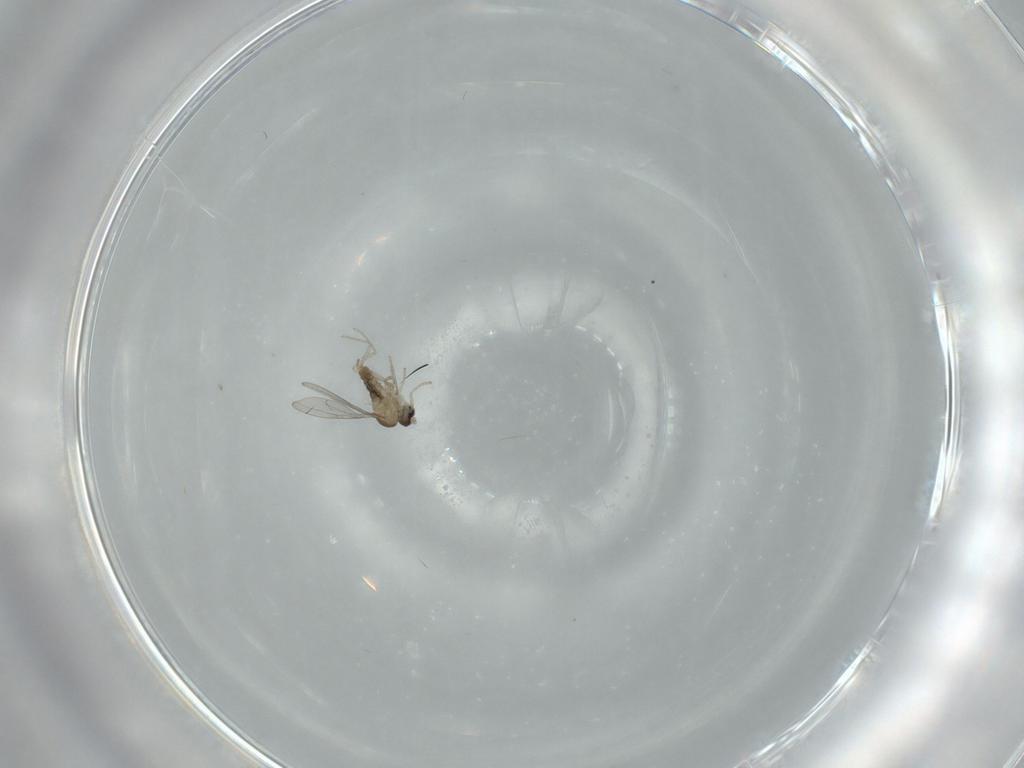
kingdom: Animalia
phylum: Arthropoda
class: Insecta
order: Diptera
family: Cecidomyiidae
